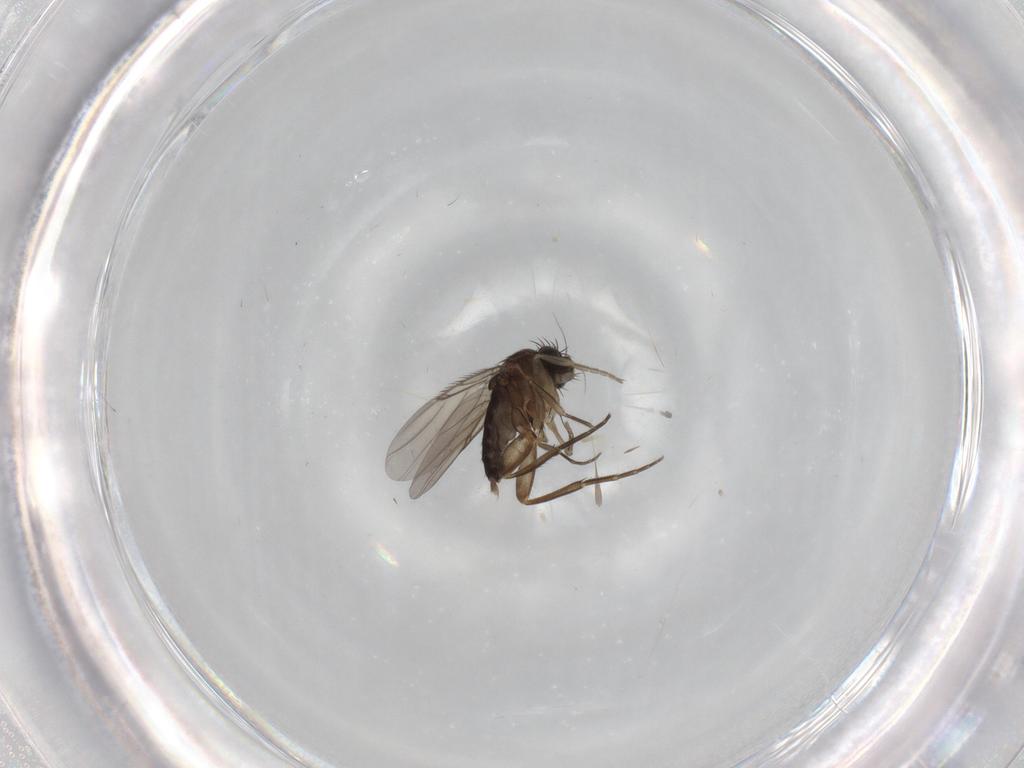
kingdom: Animalia
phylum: Arthropoda
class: Insecta
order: Diptera
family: Phoridae
